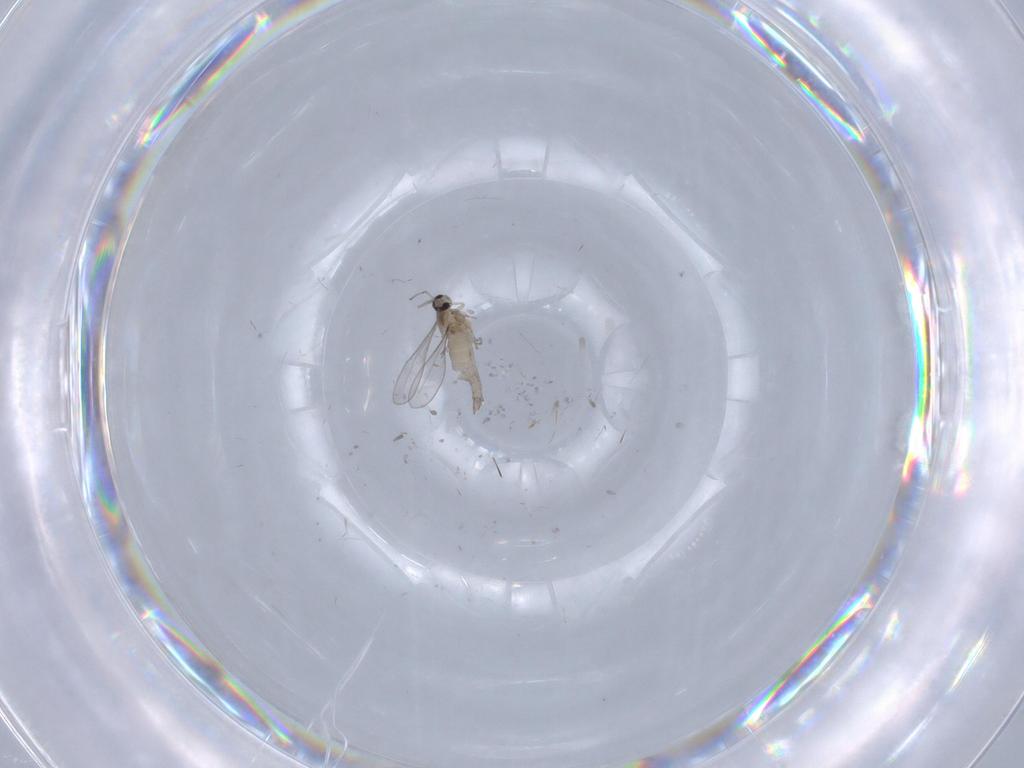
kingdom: Animalia
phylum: Arthropoda
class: Insecta
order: Diptera
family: Cecidomyiidae
